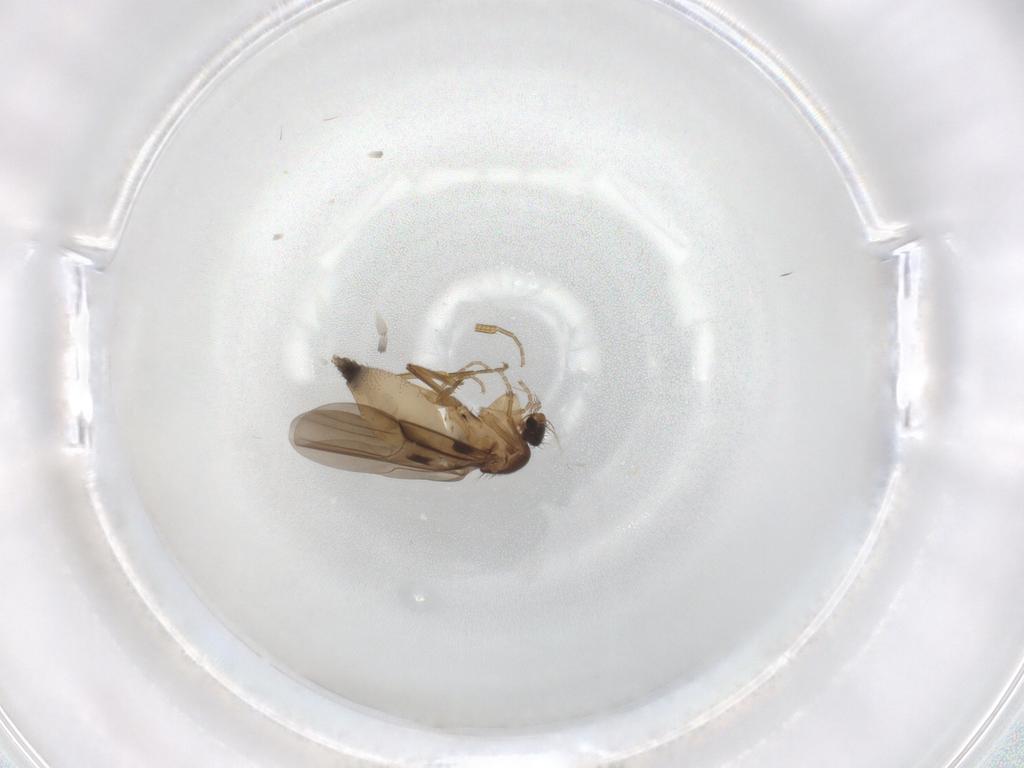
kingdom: Animalia
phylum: Arthropoda
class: Insecta
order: Diptera
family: Phoridae
